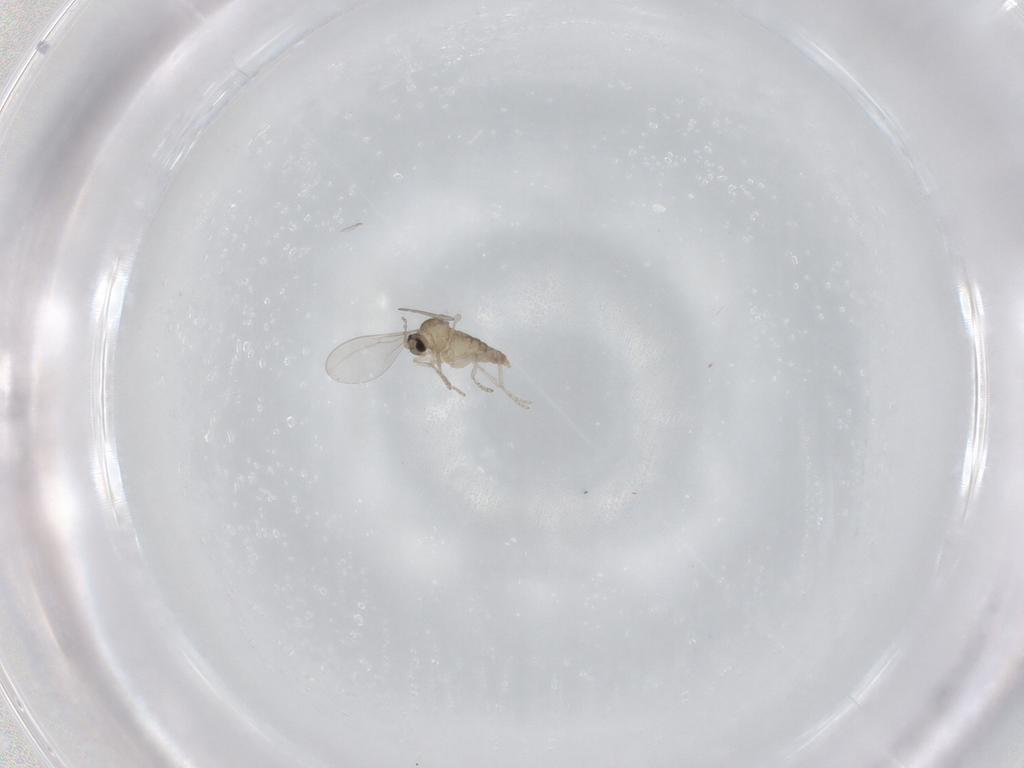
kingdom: Animalia
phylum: Arthropoda
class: Insecta
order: Diptera
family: Cecidomyiidae
